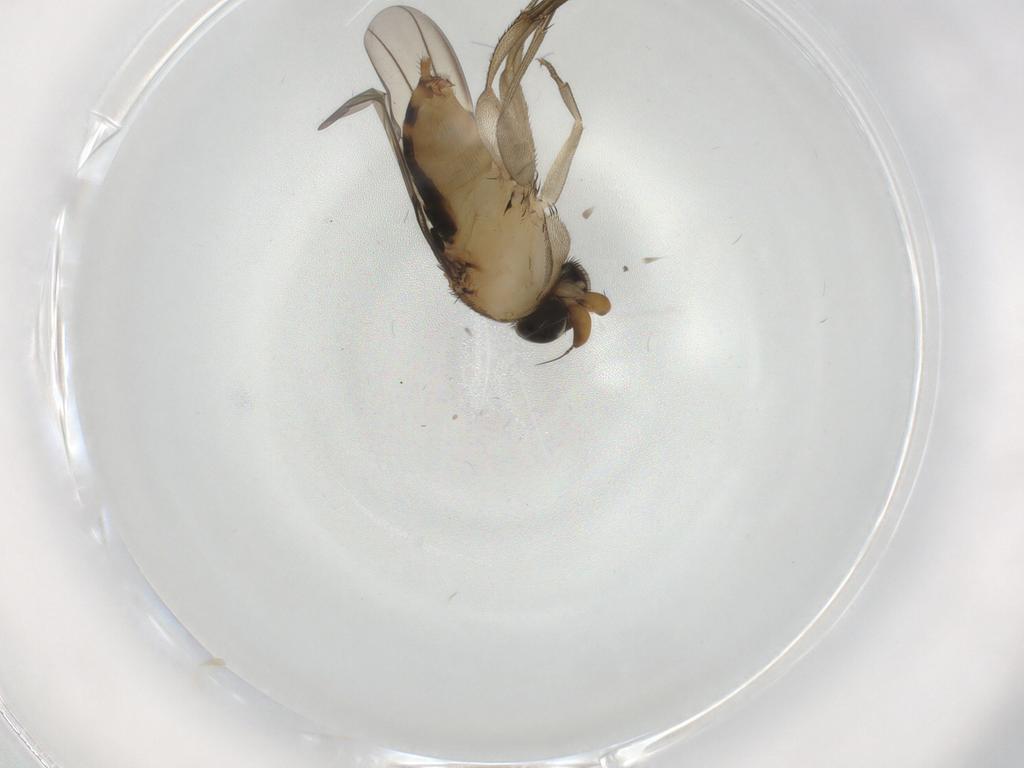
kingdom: Animalia
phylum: Arthropoda
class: Insecta
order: Diptera
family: Phoridae
